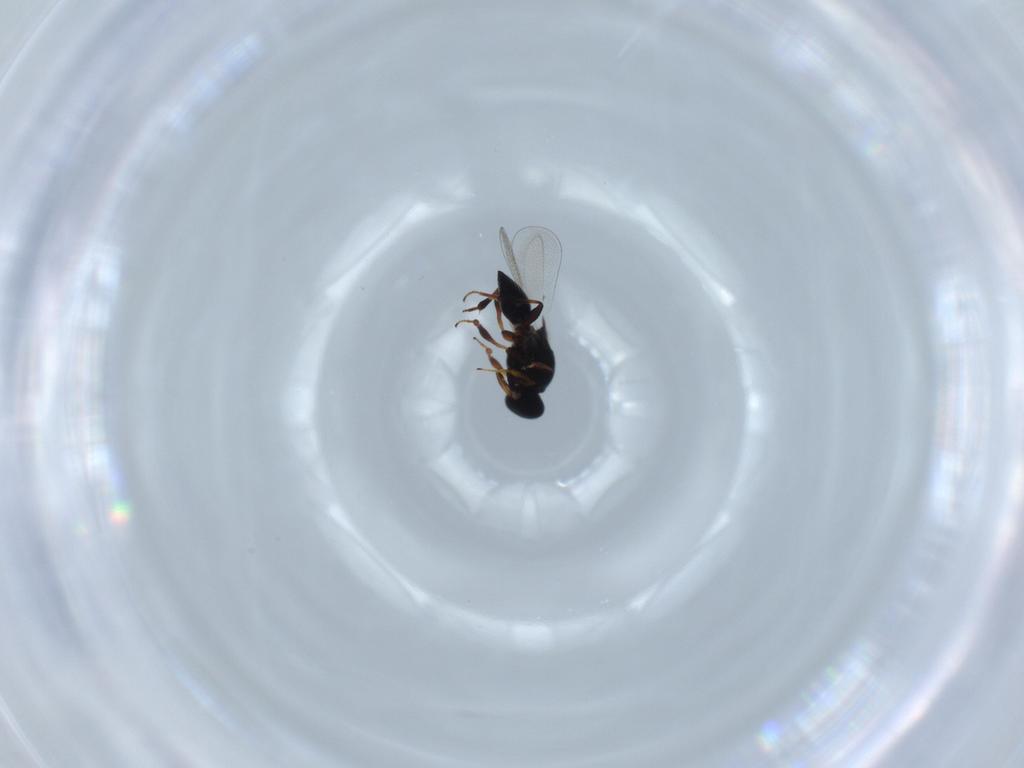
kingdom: Animalia
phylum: Arthropoda
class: Insecta
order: Hymenoptera
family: Platygastridae
